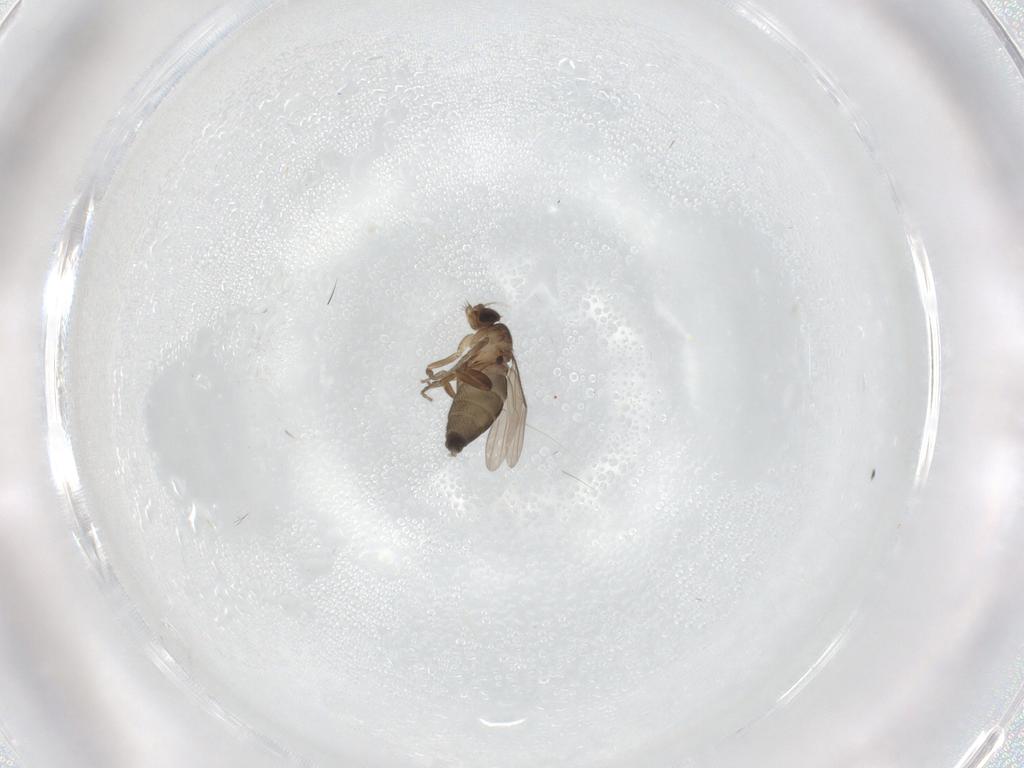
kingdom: Animalia
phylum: Arthropoda
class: Insecta
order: Diptera
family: Phoridae
